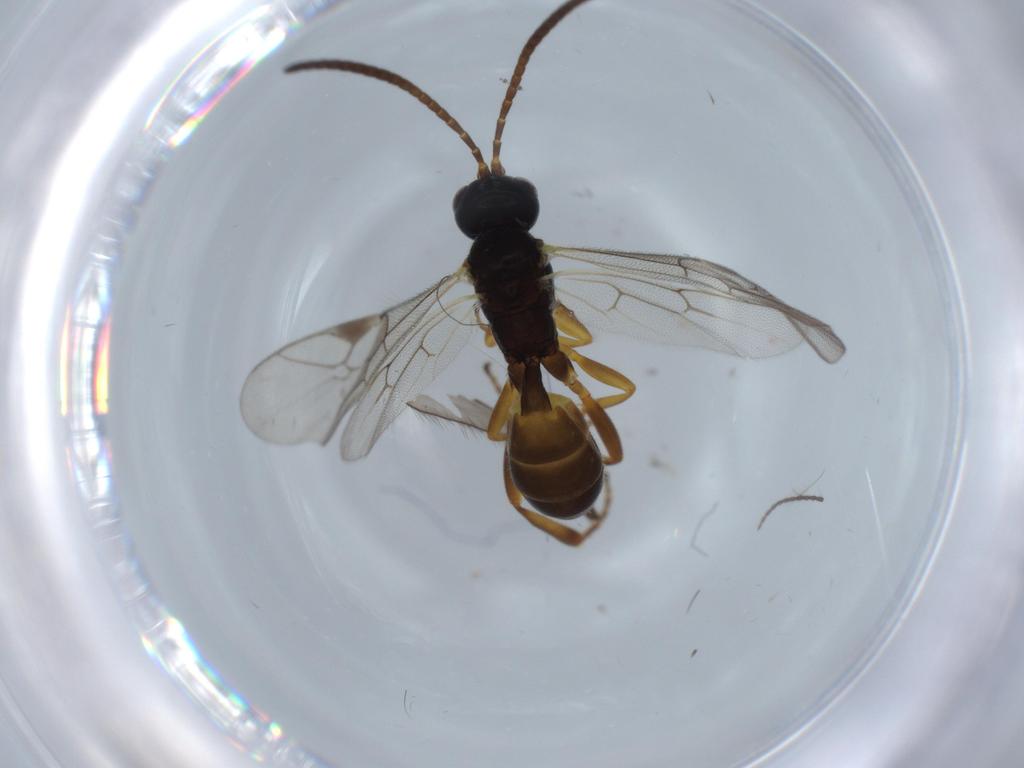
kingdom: Animalia
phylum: Arthropoda
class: Insecta
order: Hymenoptera
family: Ichneumonidae
